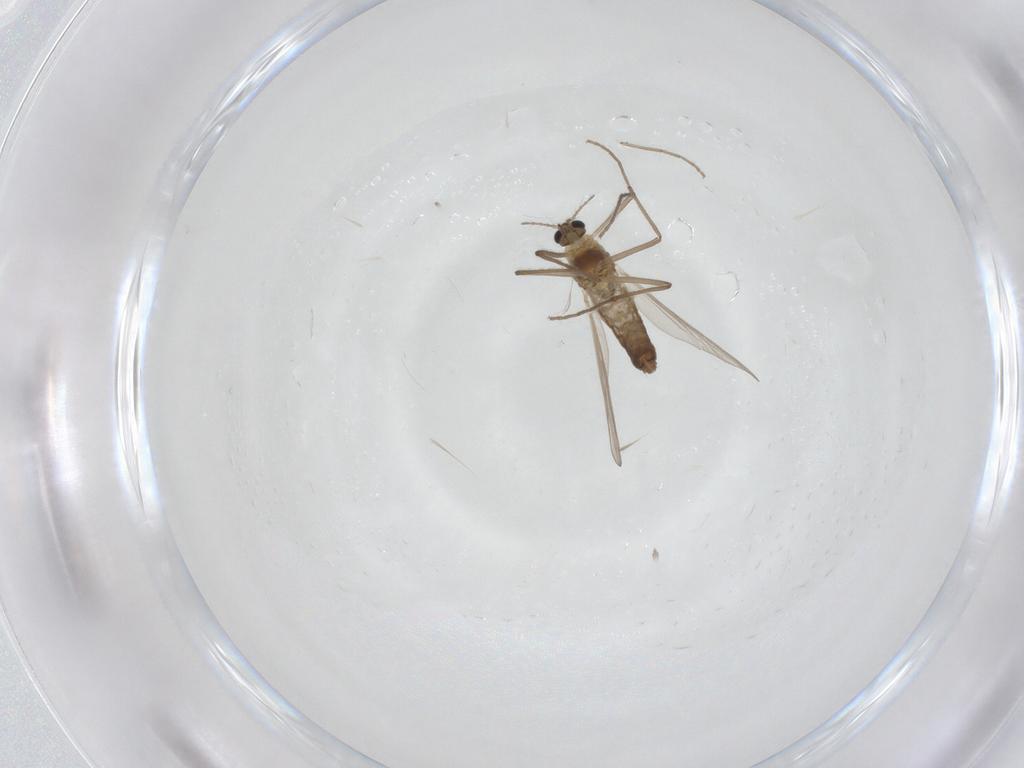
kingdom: Animalia
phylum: Arthropoda
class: Insecta
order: Diptera
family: Chironomidae
